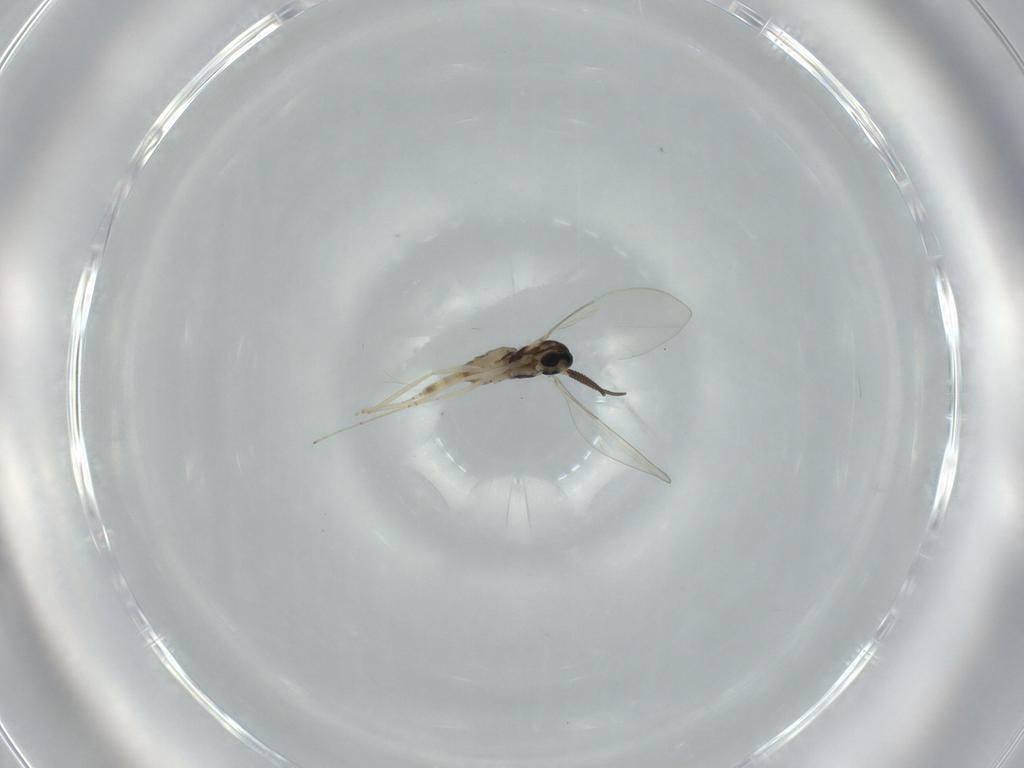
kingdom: Animalia
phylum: Arthropoda
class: Insecta
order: Diptera
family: Cecidomyiidae
